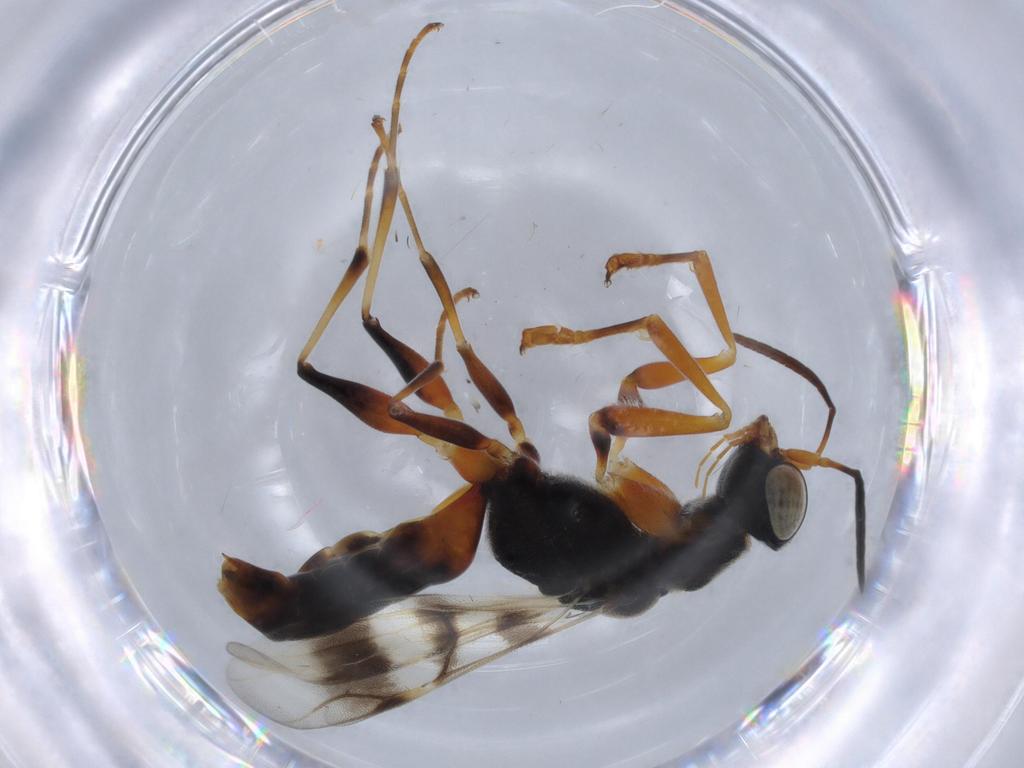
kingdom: Animalia
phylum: Arthropoda
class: Insecta
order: Hymenoptera
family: Dryinidae
